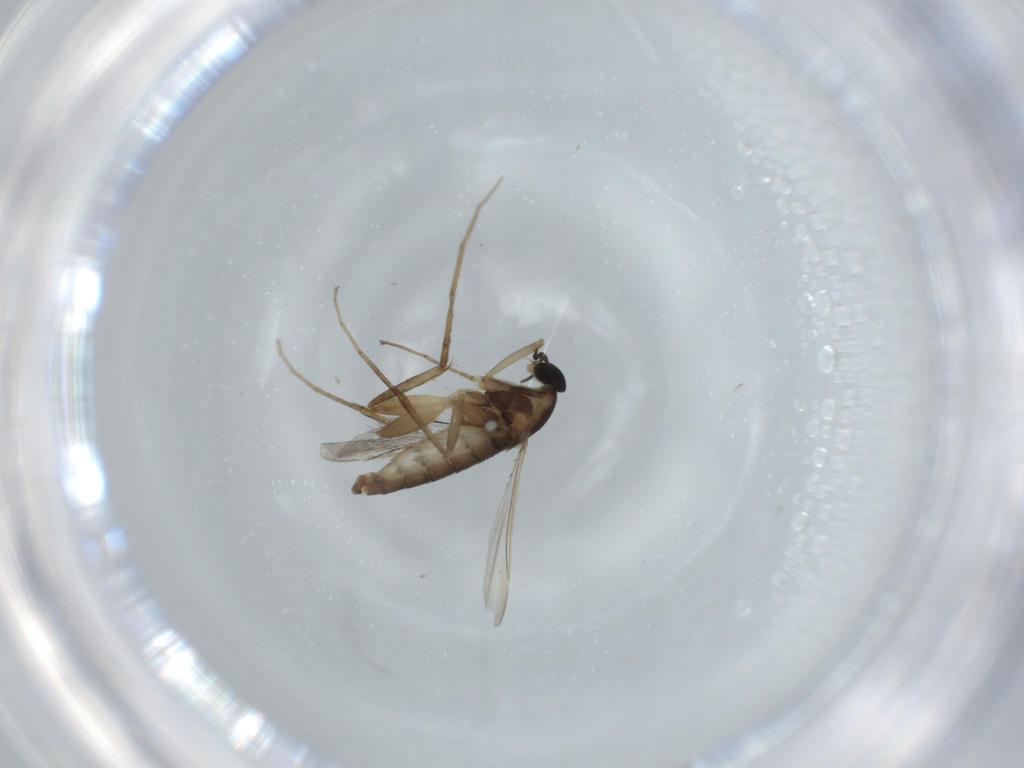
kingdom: Animalia
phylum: Arthropoda
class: Insecta
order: Diptera
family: Cecidomyiidae
